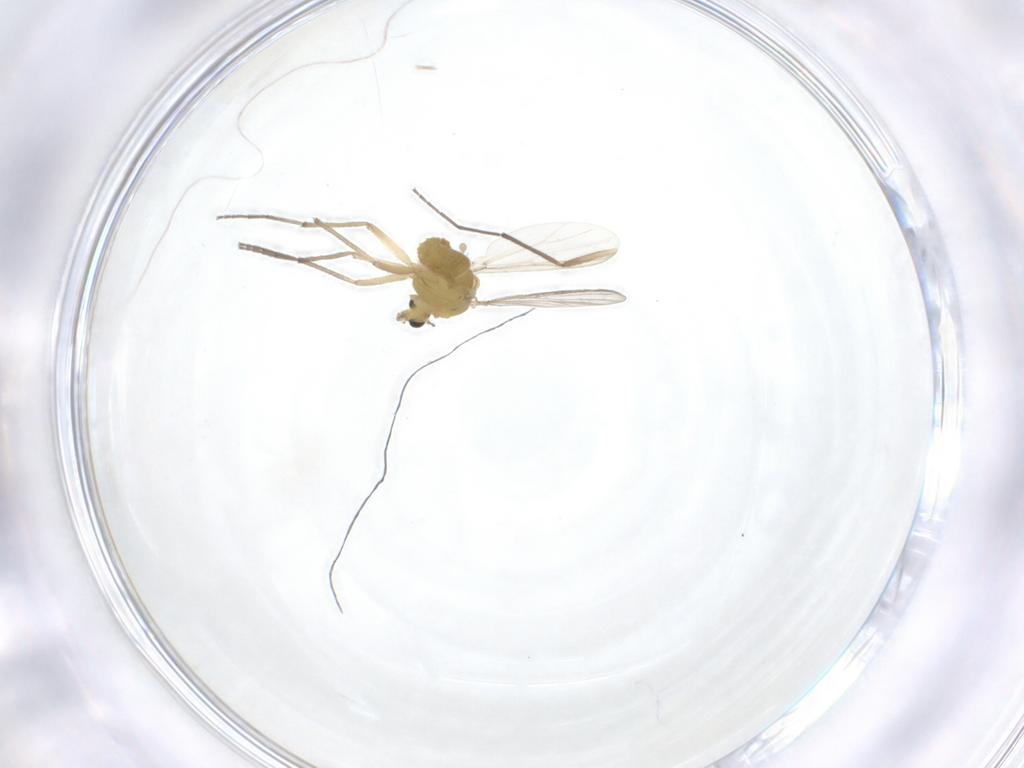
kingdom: Animalia
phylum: Arthropoda
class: Insecta
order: Diptera
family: Chironomidae
